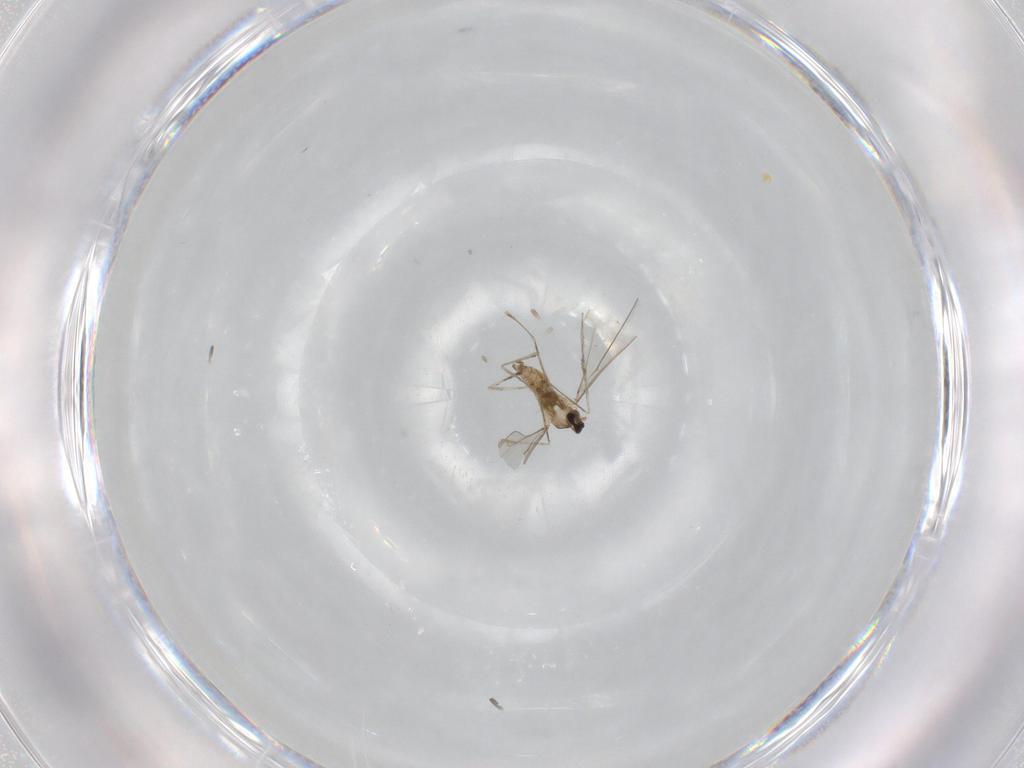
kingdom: Animalia
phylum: Arthropoda
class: Insecta
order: Diptera
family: Cecidomyiidae
